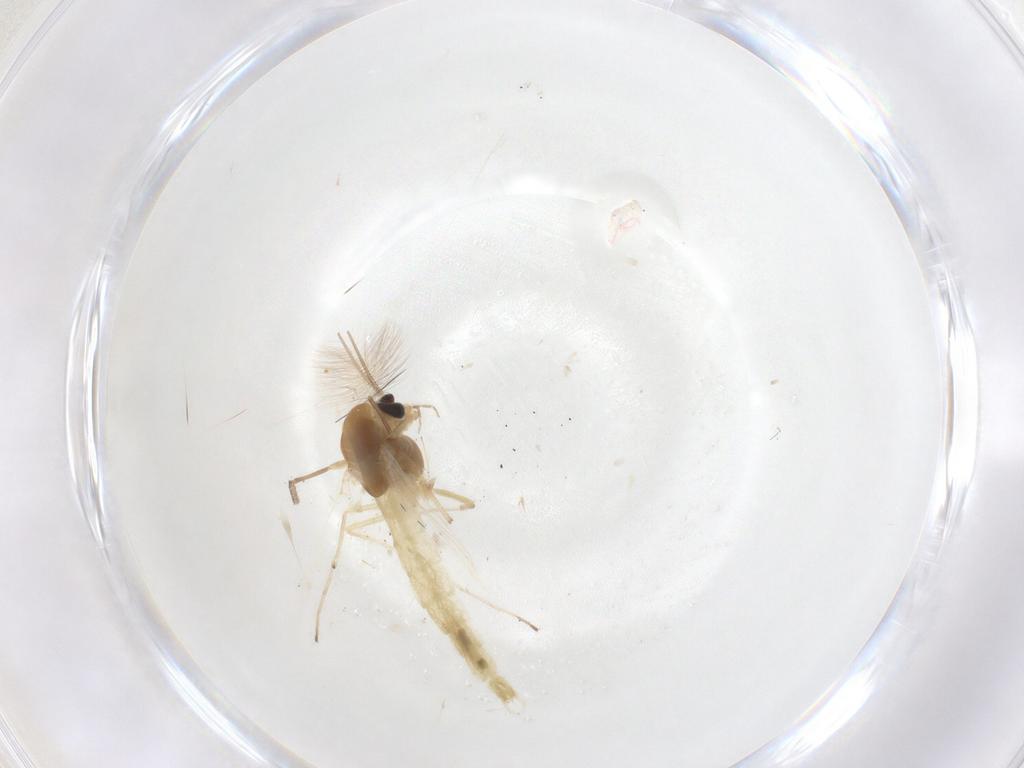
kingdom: Animalia
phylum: Arthropoda
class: Insecta
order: Diptera
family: Chironomidae
